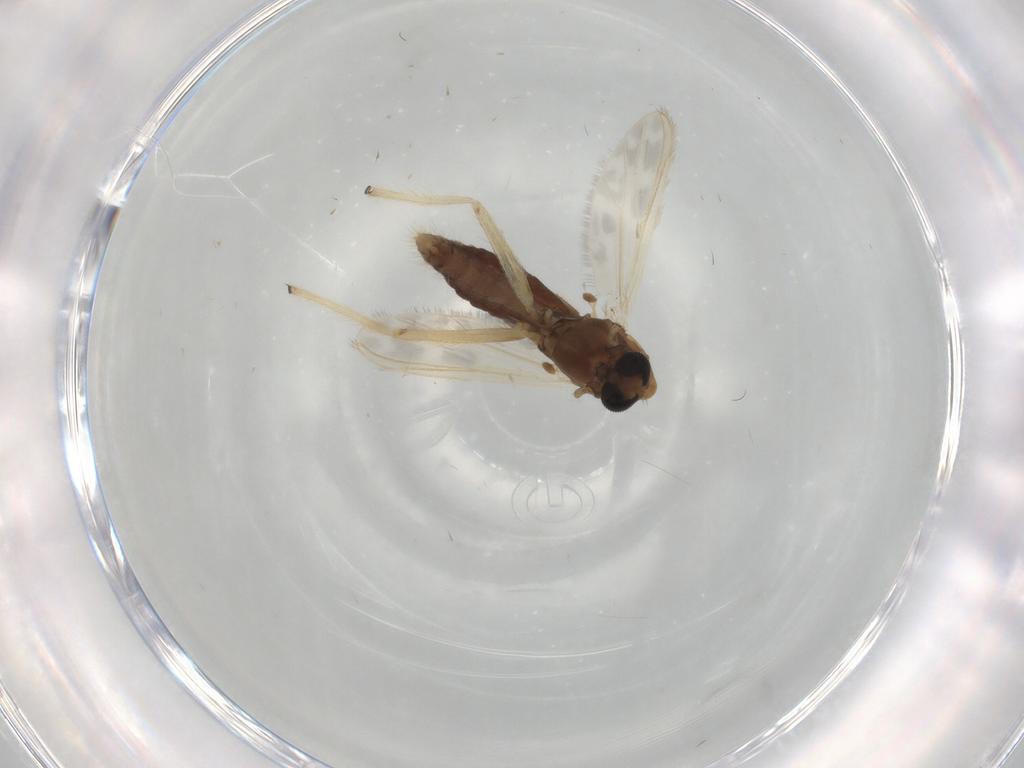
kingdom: Animalia
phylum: Arthropoda
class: Insecta
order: Diptera
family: Chironomidae
